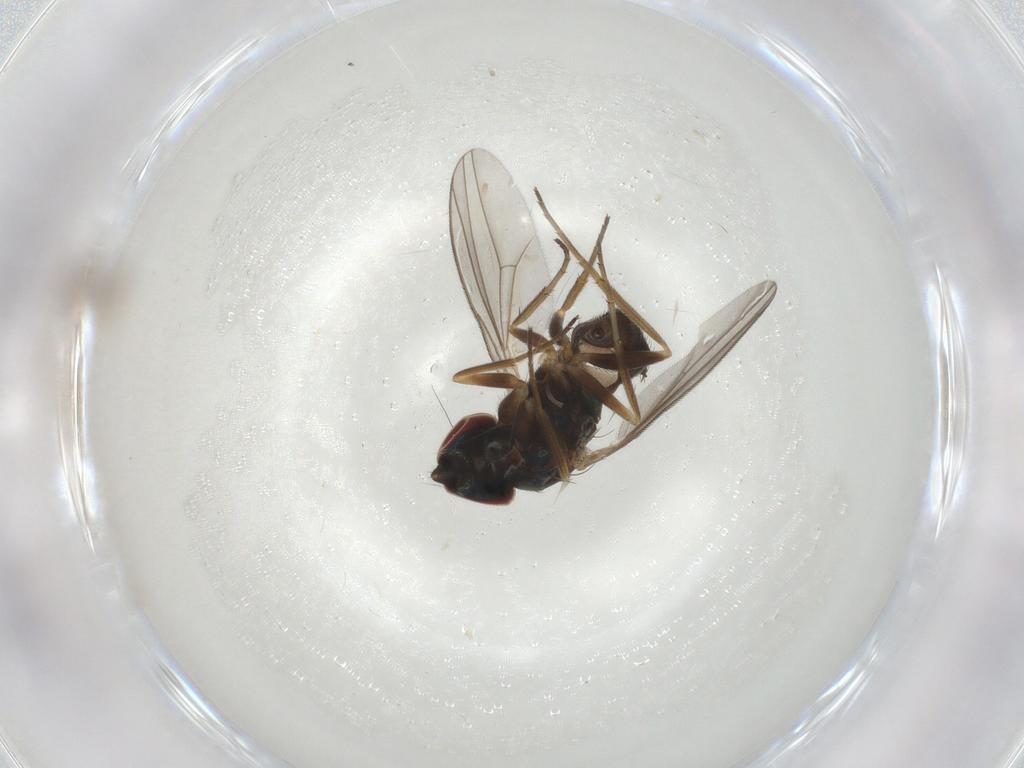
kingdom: Animalia
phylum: Arthropoda
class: Insecta
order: Diptera
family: Dolichopodidae
